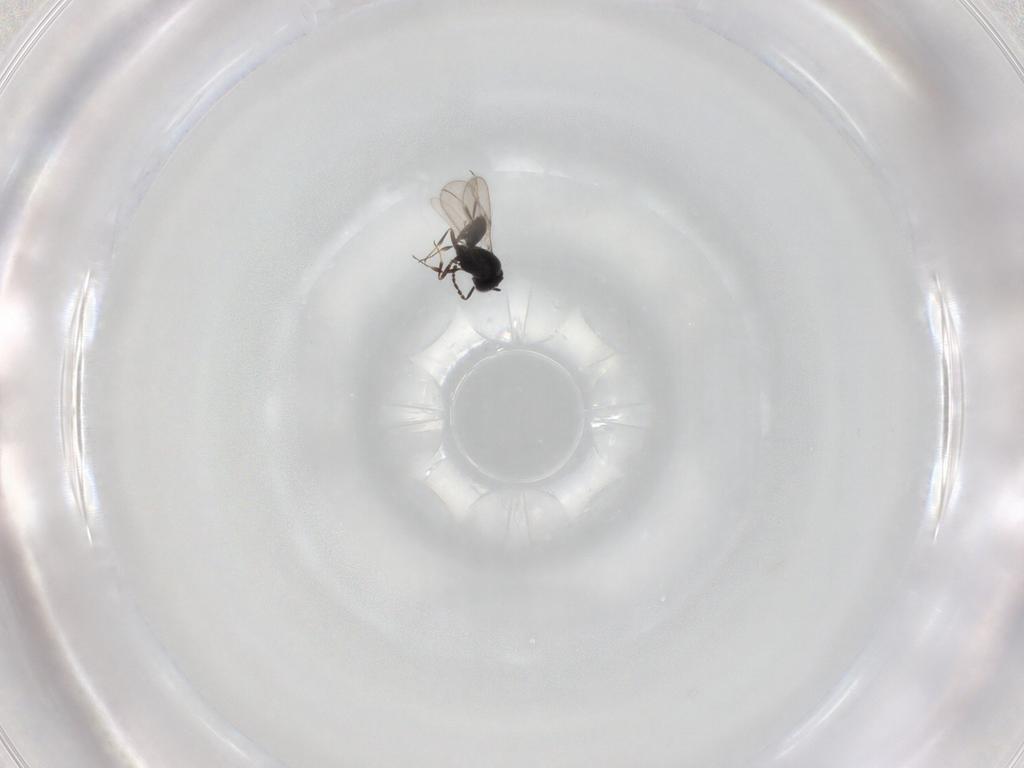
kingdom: Animalia
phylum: Arthropoda
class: Insecta
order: Hymenoptera
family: Scelionidae
